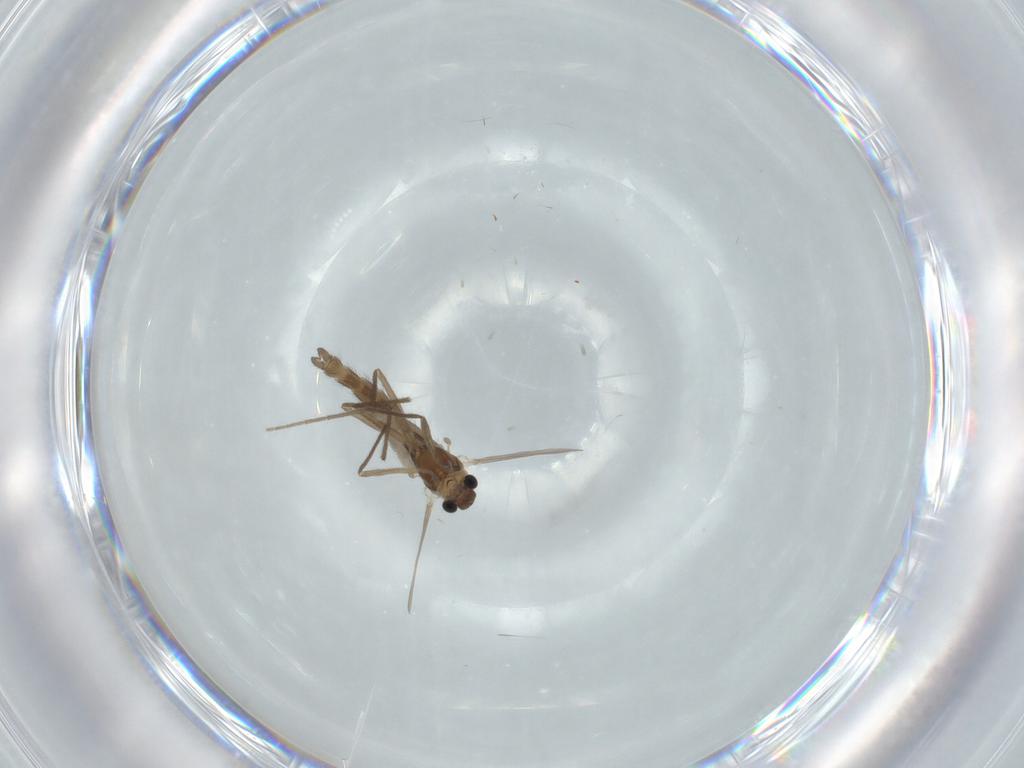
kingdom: Animalia
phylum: Arthropoda
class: Insecta
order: Diptera
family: Chironomidae
